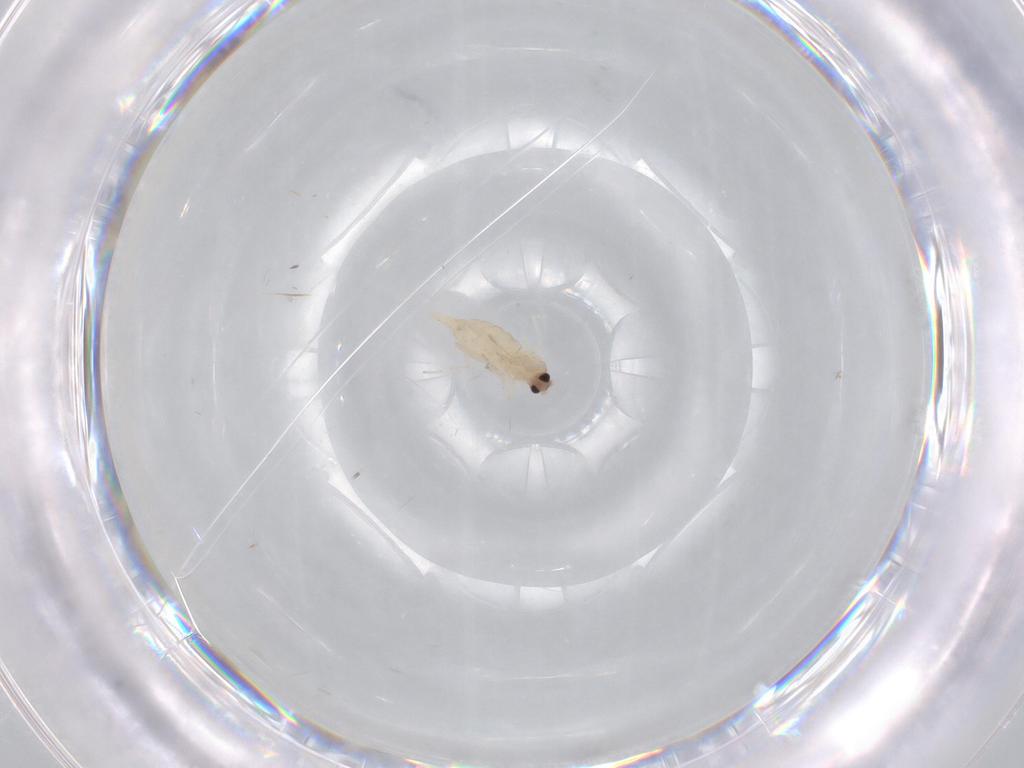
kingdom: Animalia
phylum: Arthropoda
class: Insecta
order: Diptera
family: Cecidomyiidae
